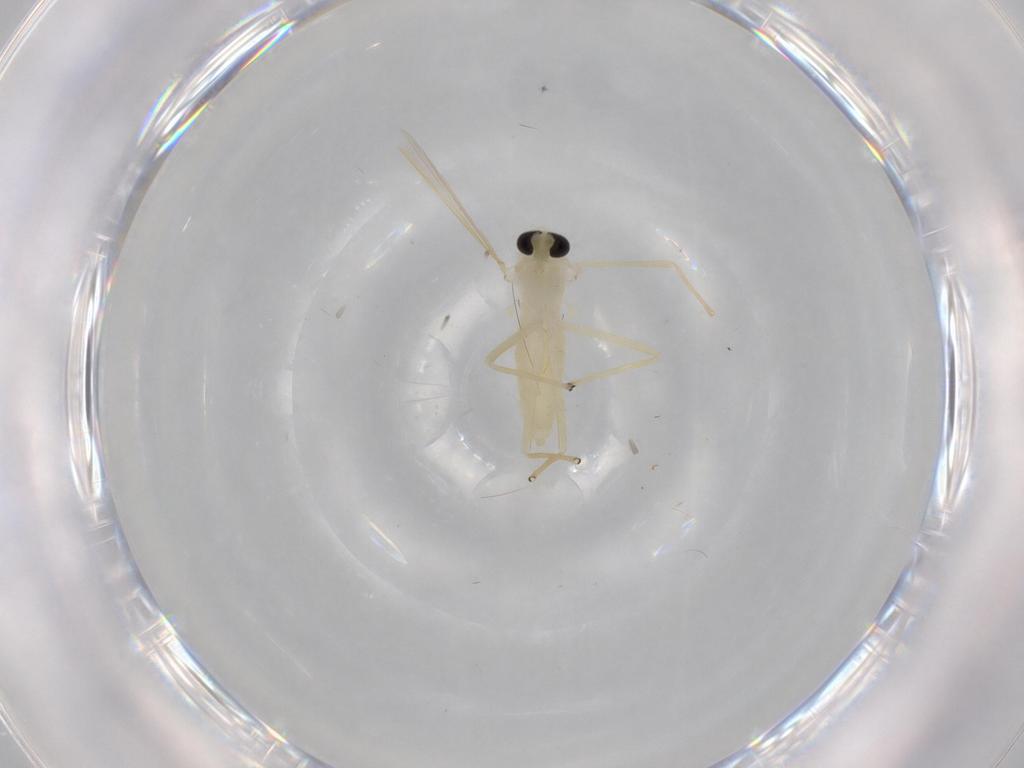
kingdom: Animalia
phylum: Arthropoda
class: Insecta
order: Diptera
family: Chironomidae
